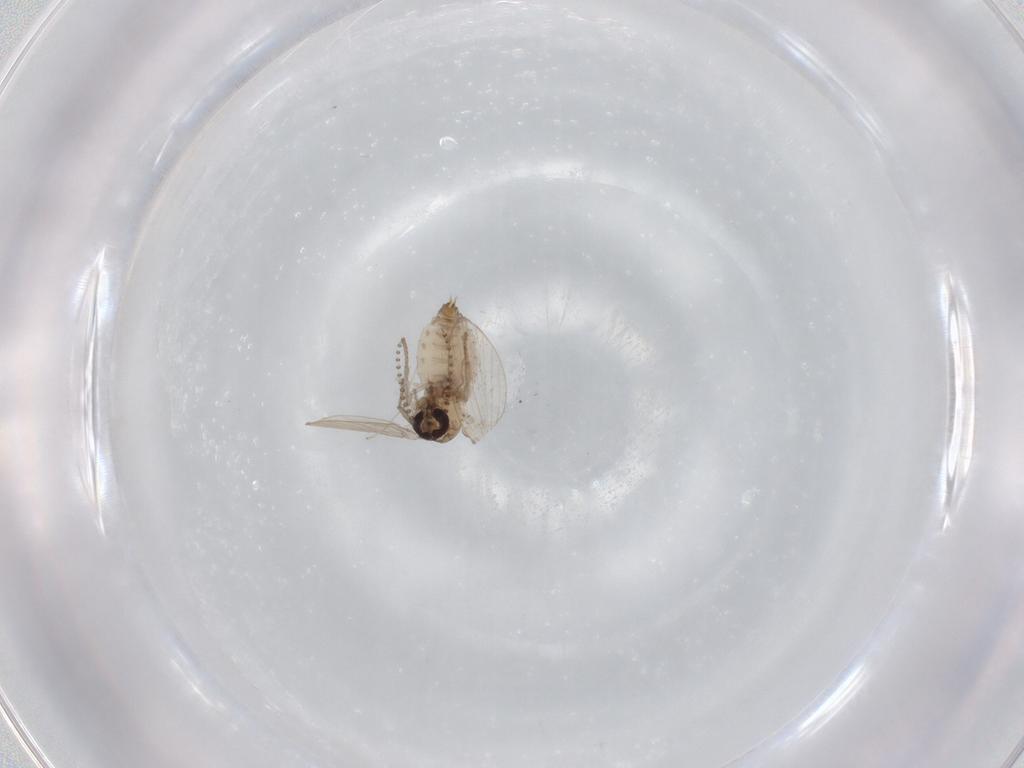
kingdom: Animalia
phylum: Arthropoda
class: Insecta
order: Diptera
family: Psychodidae
